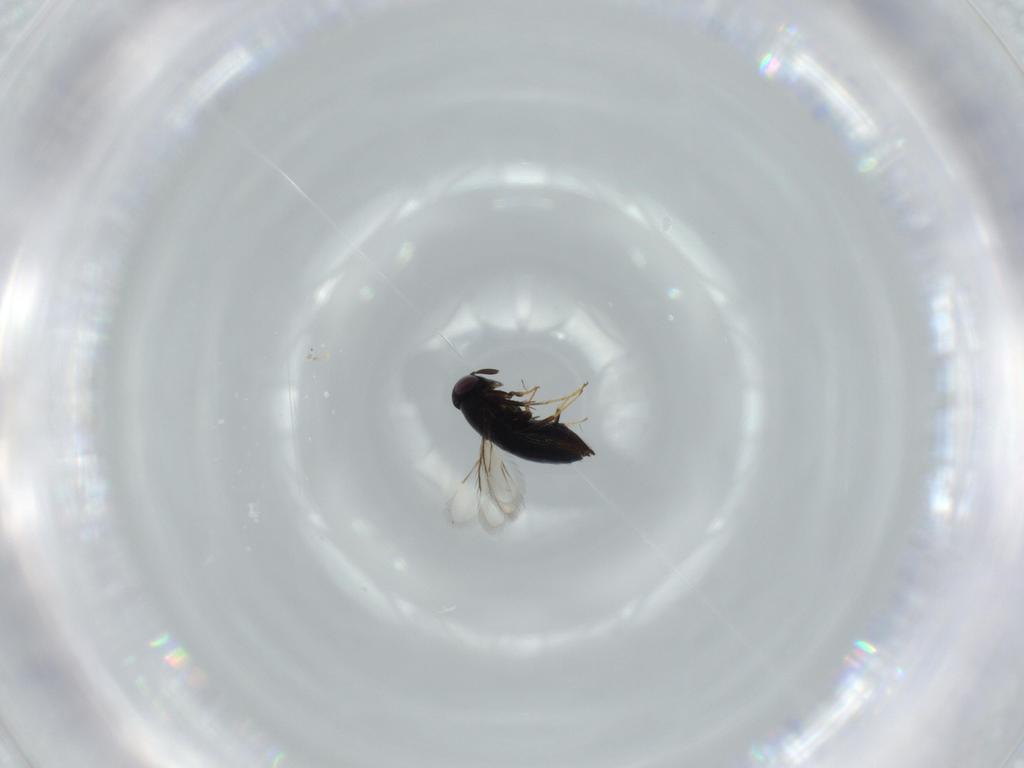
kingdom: Animalia
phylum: Arthropoda
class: Insecta
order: Hymenoptera
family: Signiphoridae
